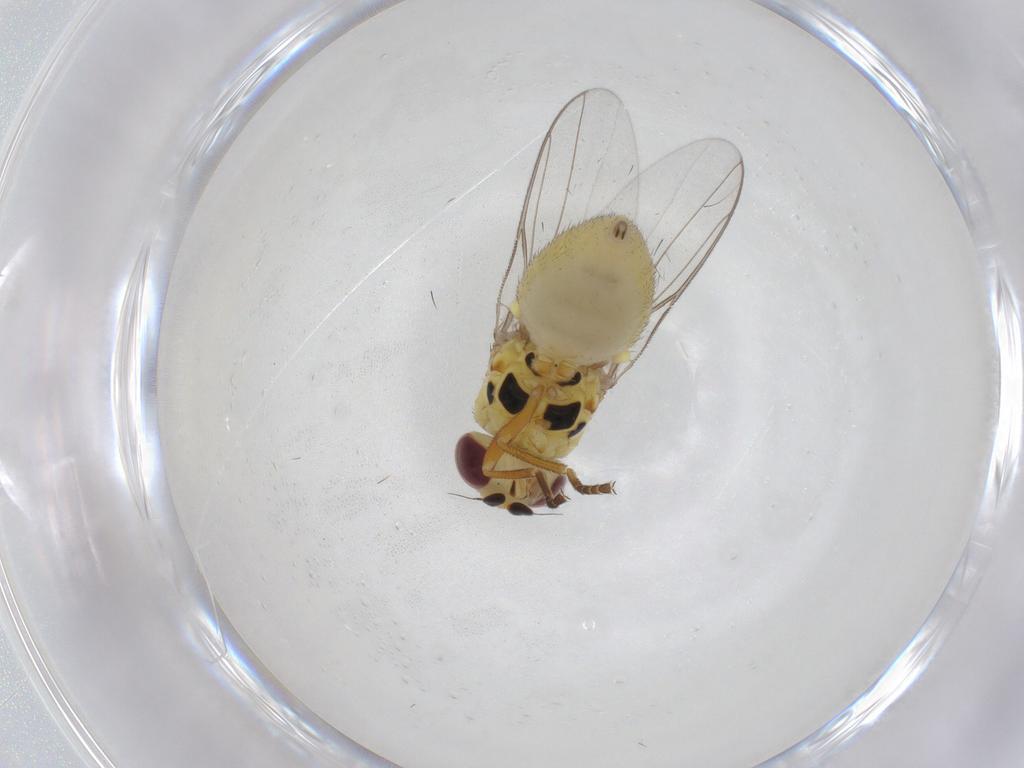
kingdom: Animalia
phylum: Arthropoda
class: Insecta
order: Diptera
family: Chloropidae
